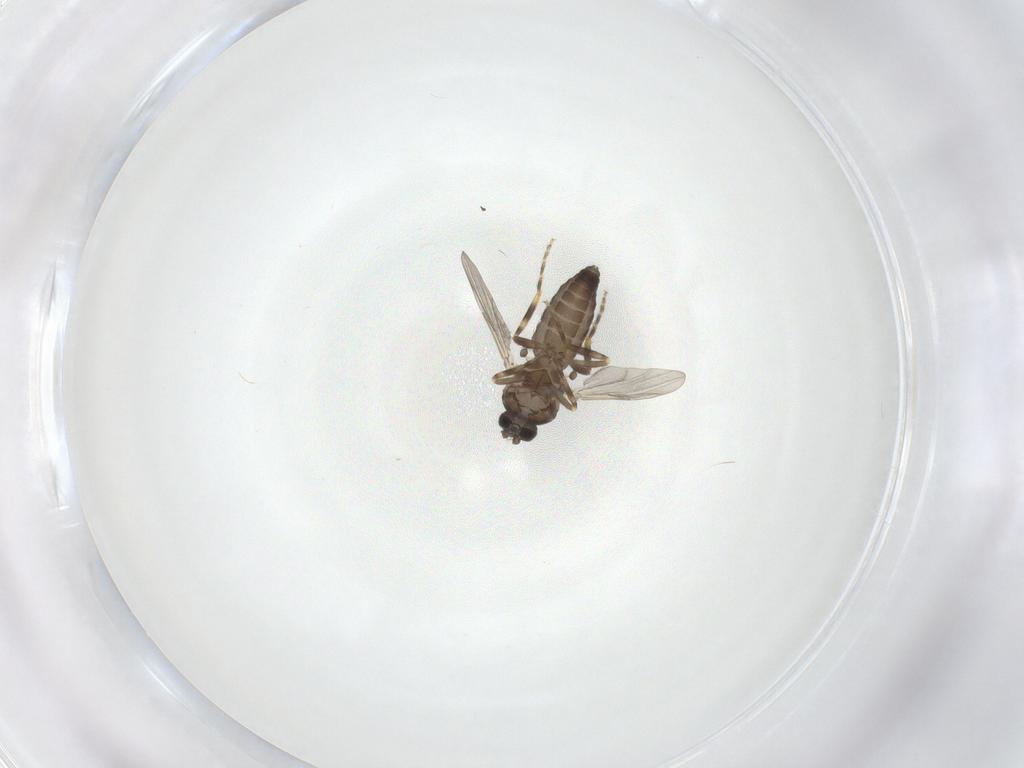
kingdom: Animalia
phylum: Arthropoda
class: Insecta
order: Diptera
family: Ceratopogonidae
